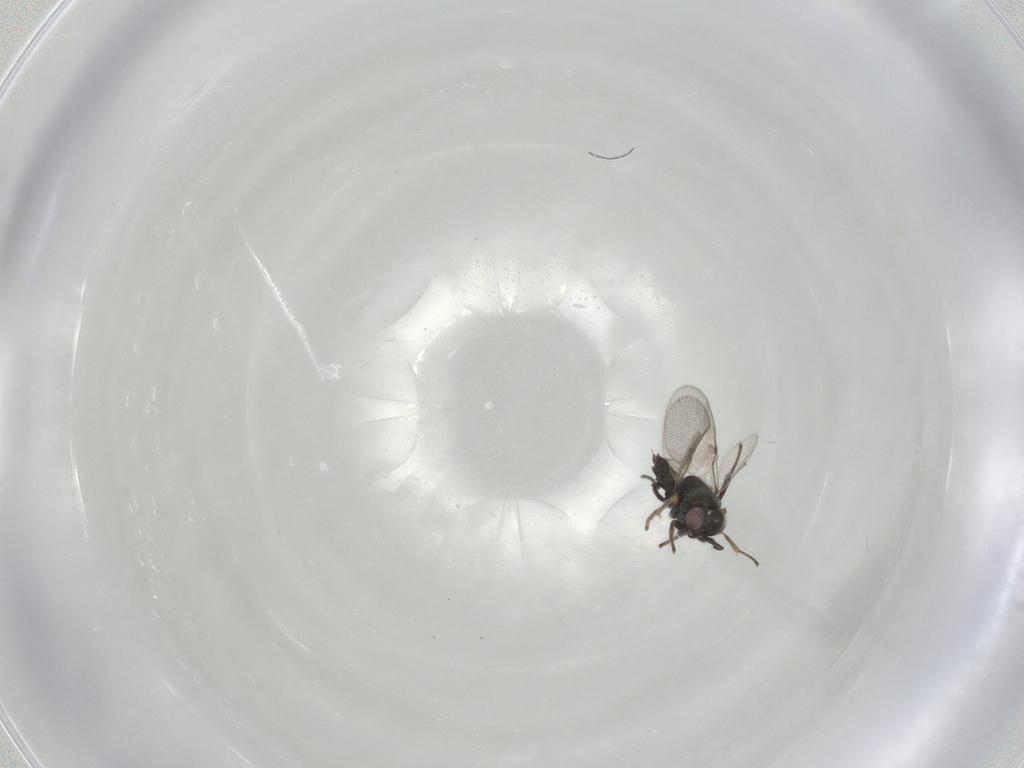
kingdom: Animalia
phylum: Arthropoda
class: Insecta
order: Hymenoptera
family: Encyrtidae
